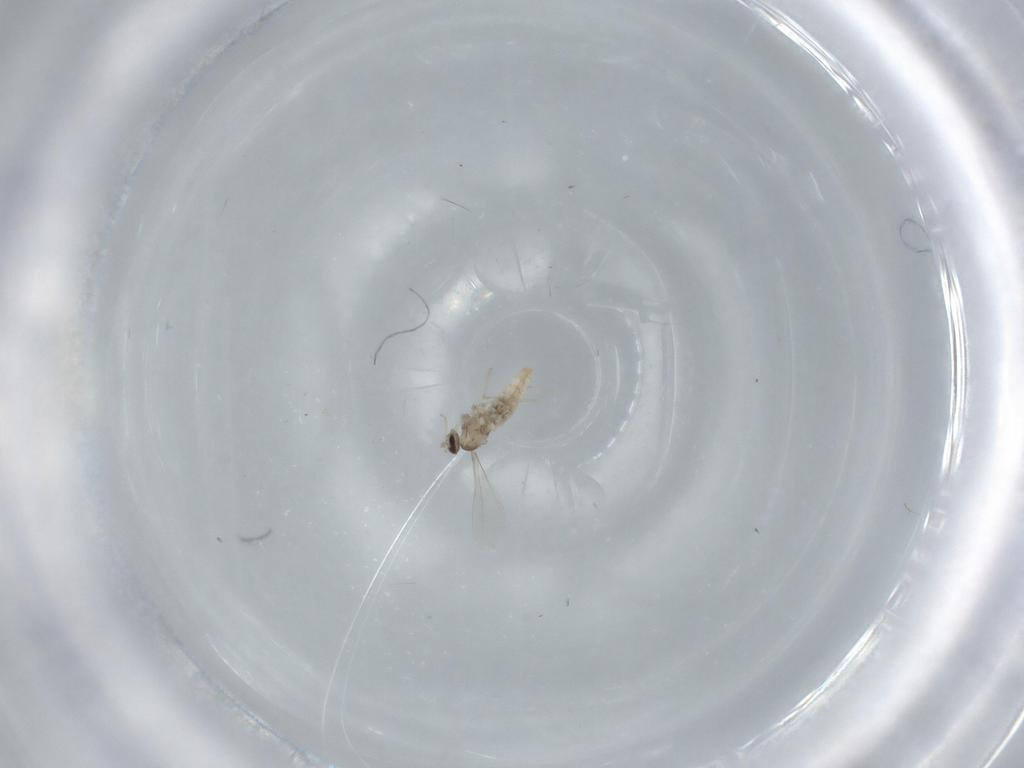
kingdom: Animalia
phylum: Arthropoda
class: Insecta
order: Diptera
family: Cecidomyiidae
